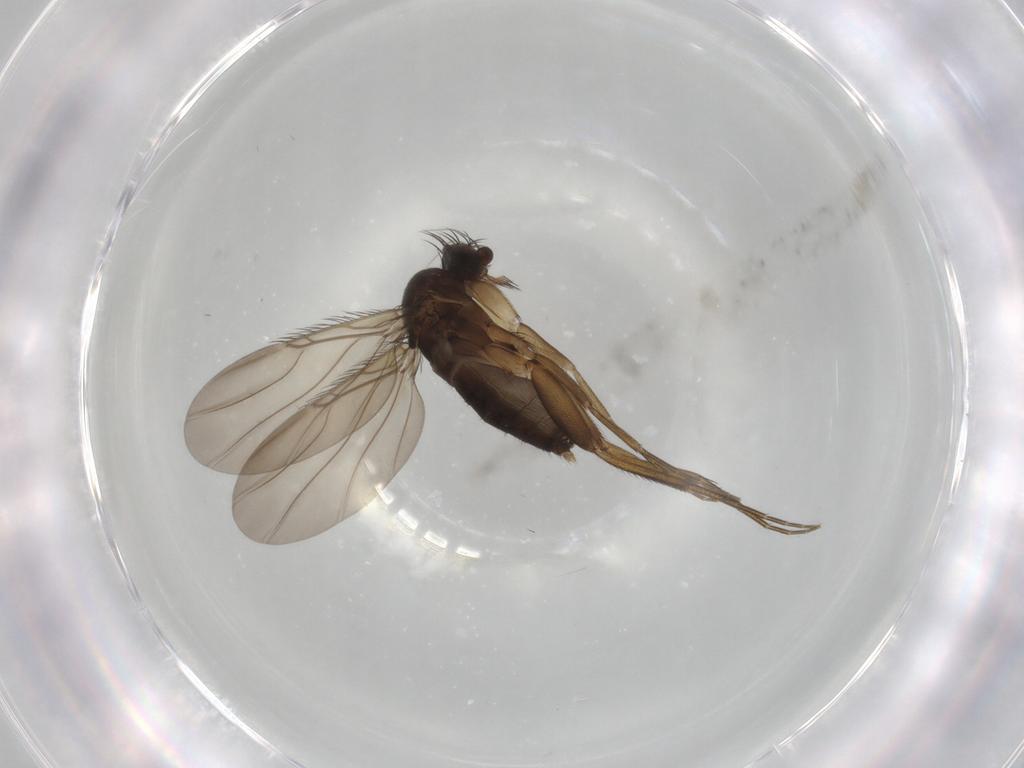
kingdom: Animalia
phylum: Arthropoda
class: Insecta
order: Diptera
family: Phoridae
